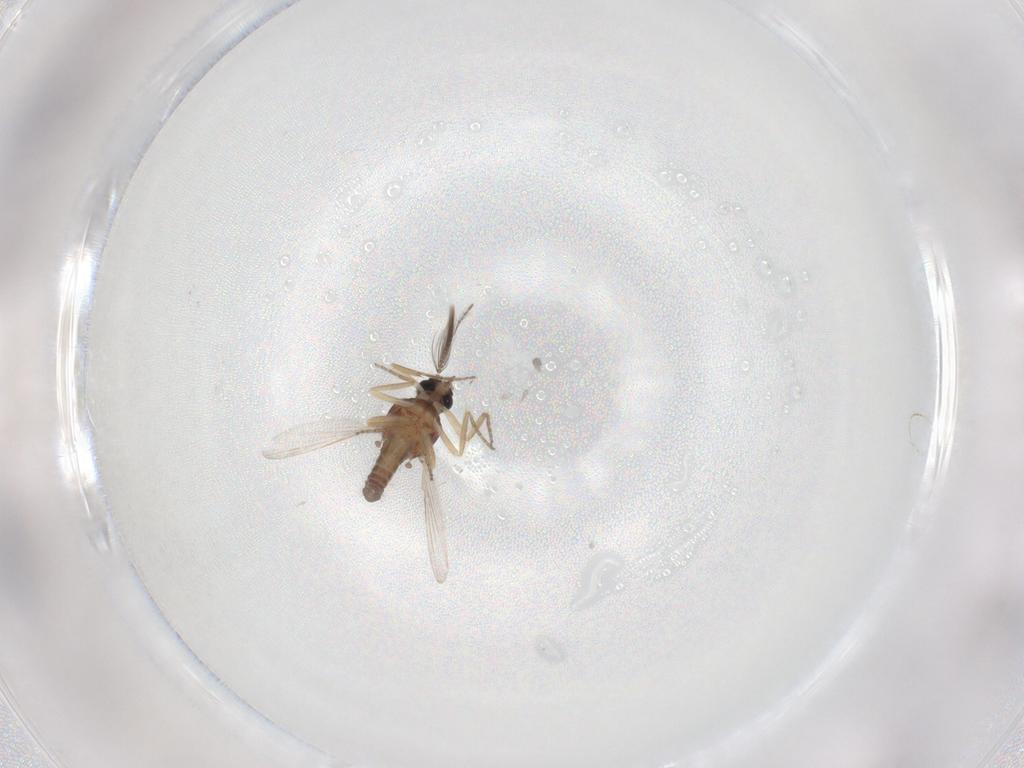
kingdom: Animalia
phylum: Arthropoda
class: Insecta
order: Diptera
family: Ceratopogonidae
